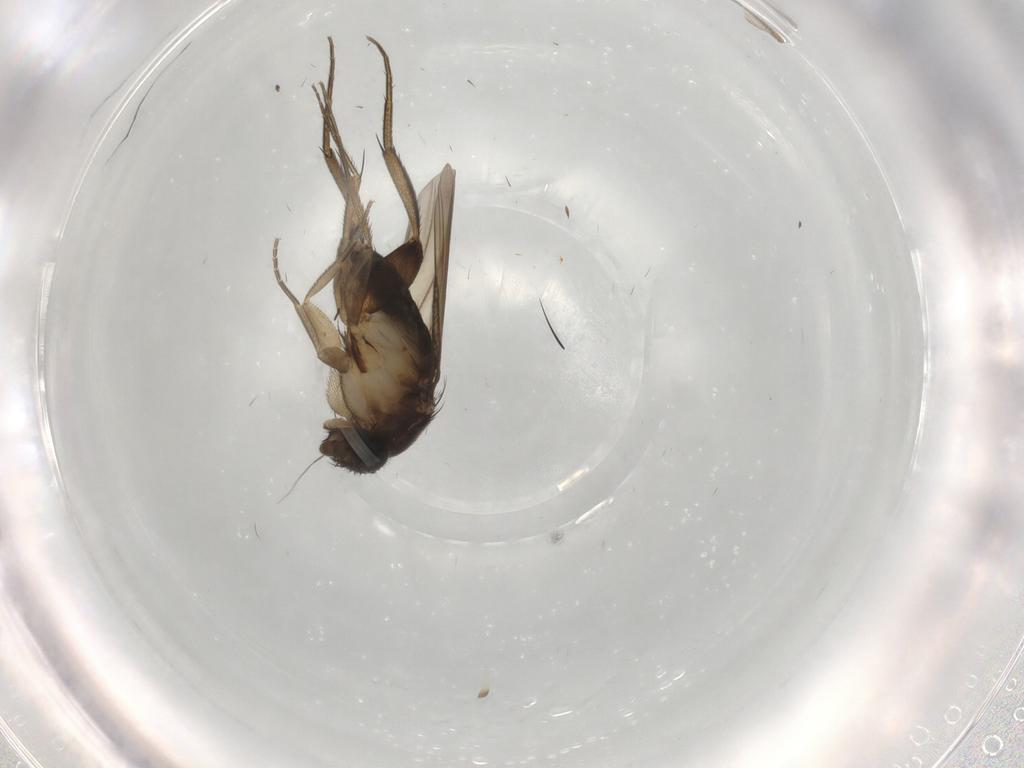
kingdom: Animalia
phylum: Arthropoda
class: Insecta
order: Diptera
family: Phoridae
